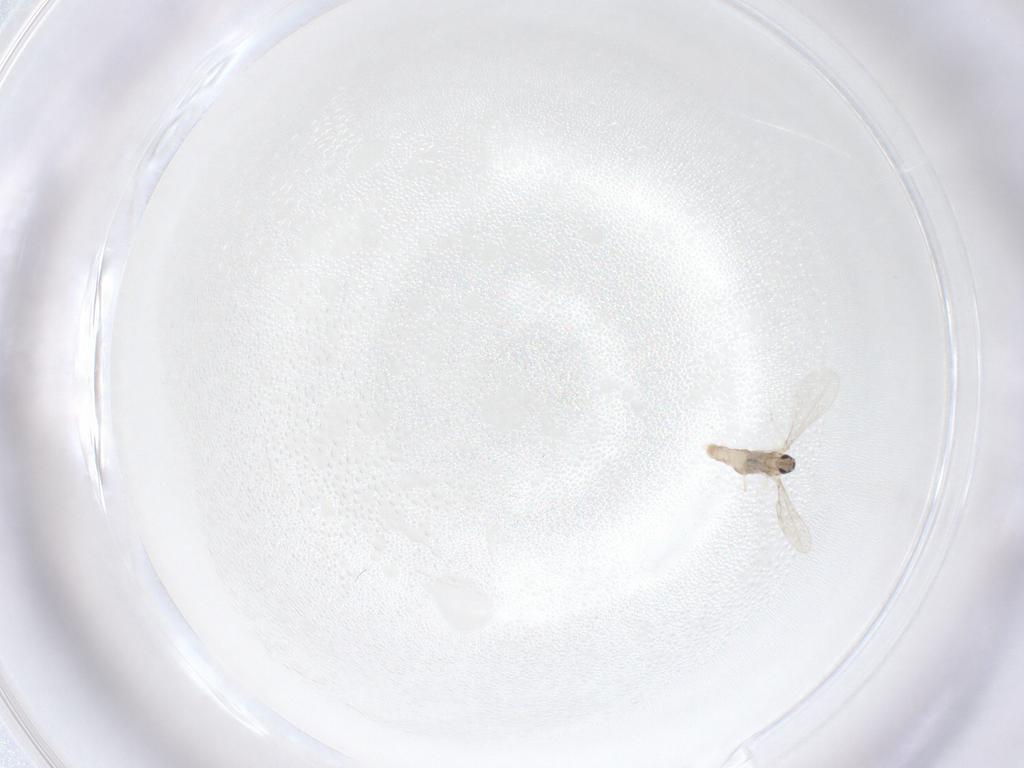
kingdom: Animalia
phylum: Arthropoda
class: Insecta
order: Diptera
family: Cecidomyiidae
